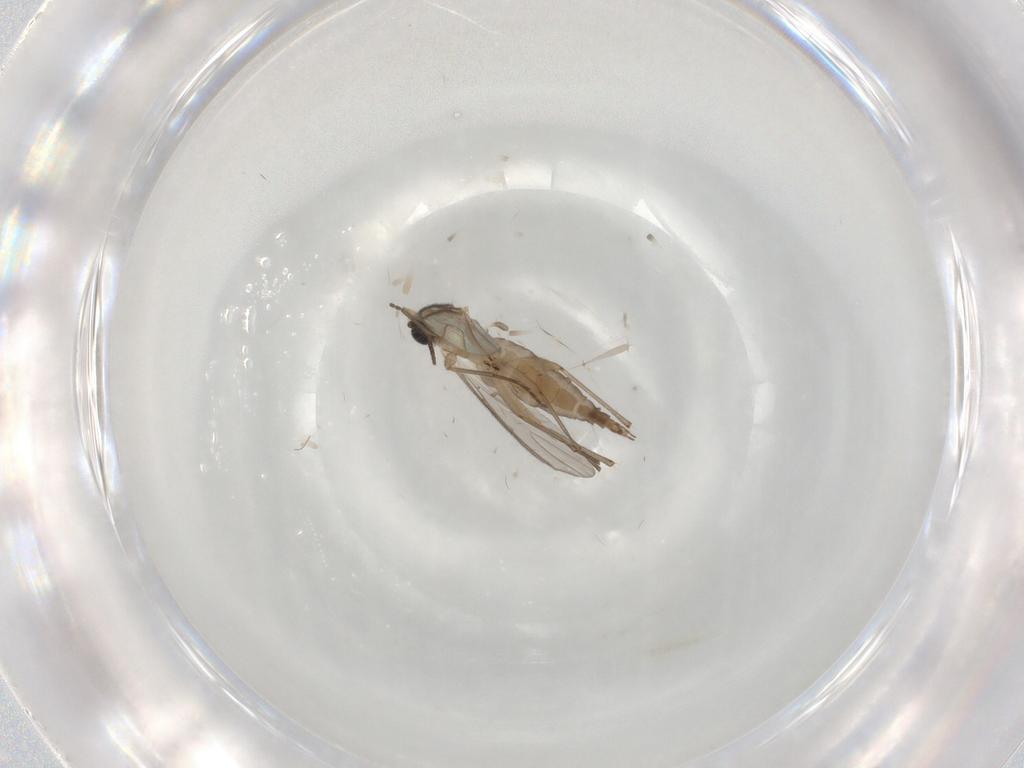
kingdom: Animalia
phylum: Arthropoda
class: Insecta
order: Diptera
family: Sciaridae
